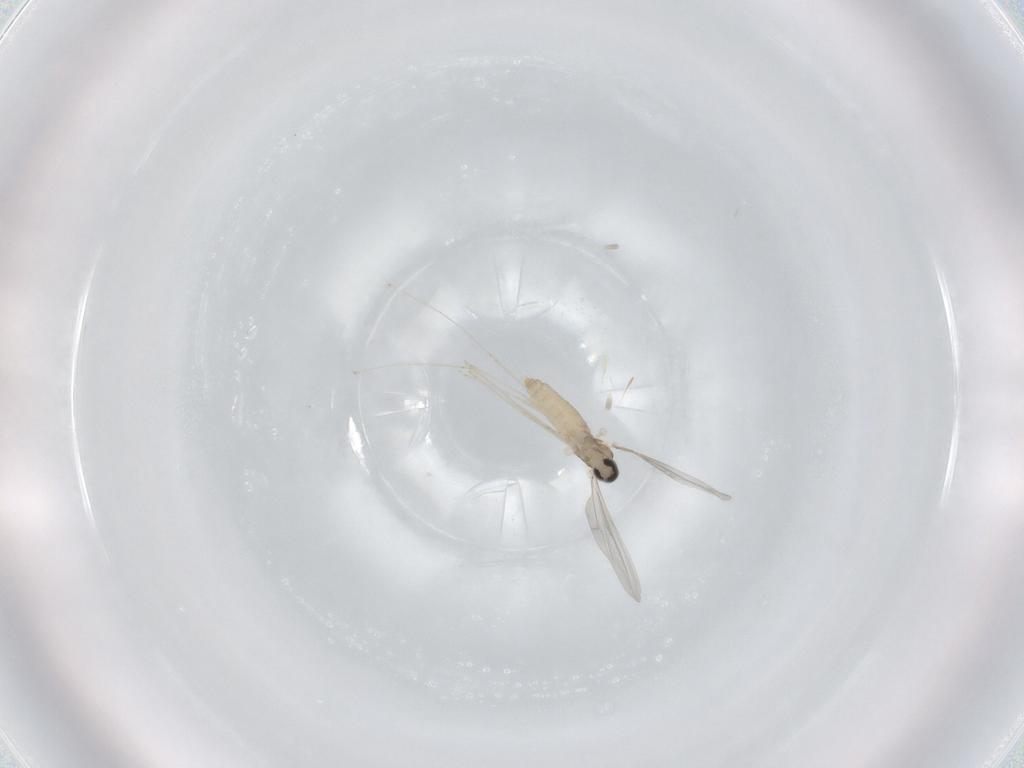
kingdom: Animalia
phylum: Arthropoda
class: Insecta
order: Diptera
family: Cecidomyiidae
